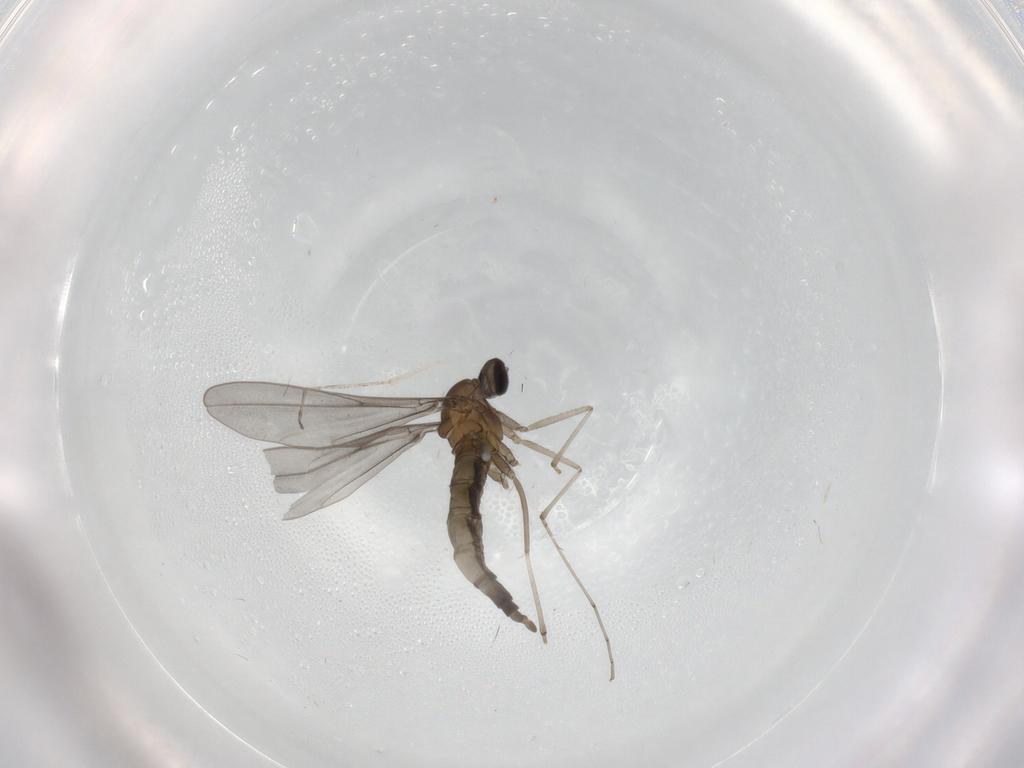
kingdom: Animalia
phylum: Arthropoda
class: Insecta
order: Diptera
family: Cecidomyiidae
